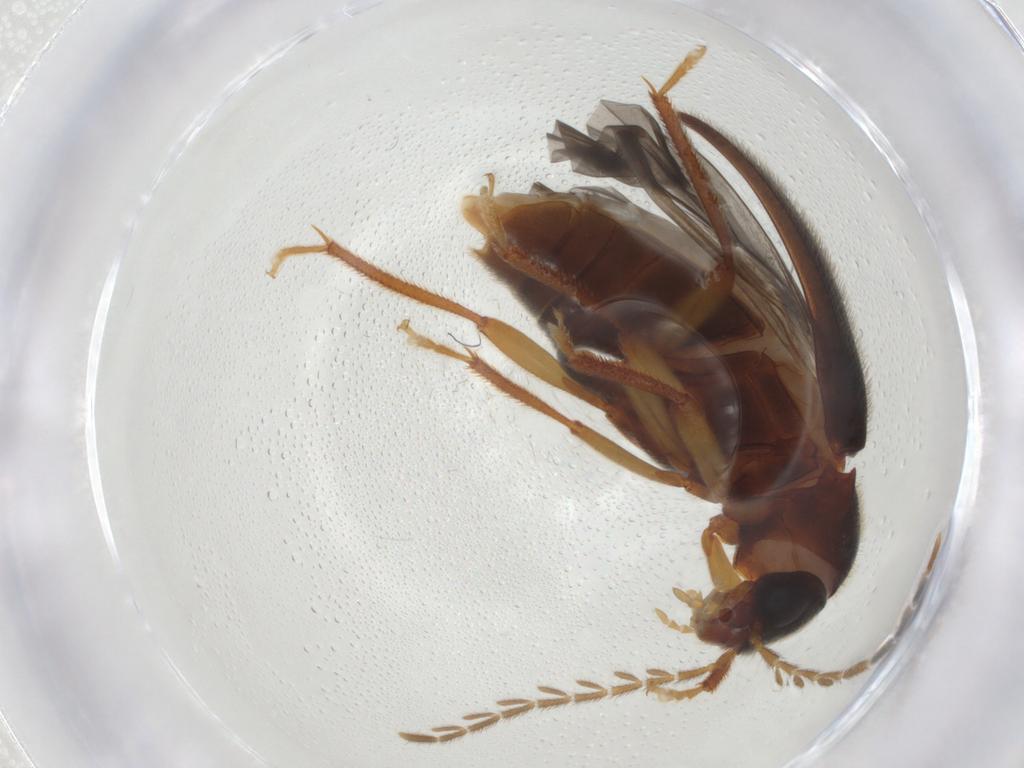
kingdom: Animalia
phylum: Arthropoda
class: Insecta
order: Coleoptera
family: Ptilodactylidae
